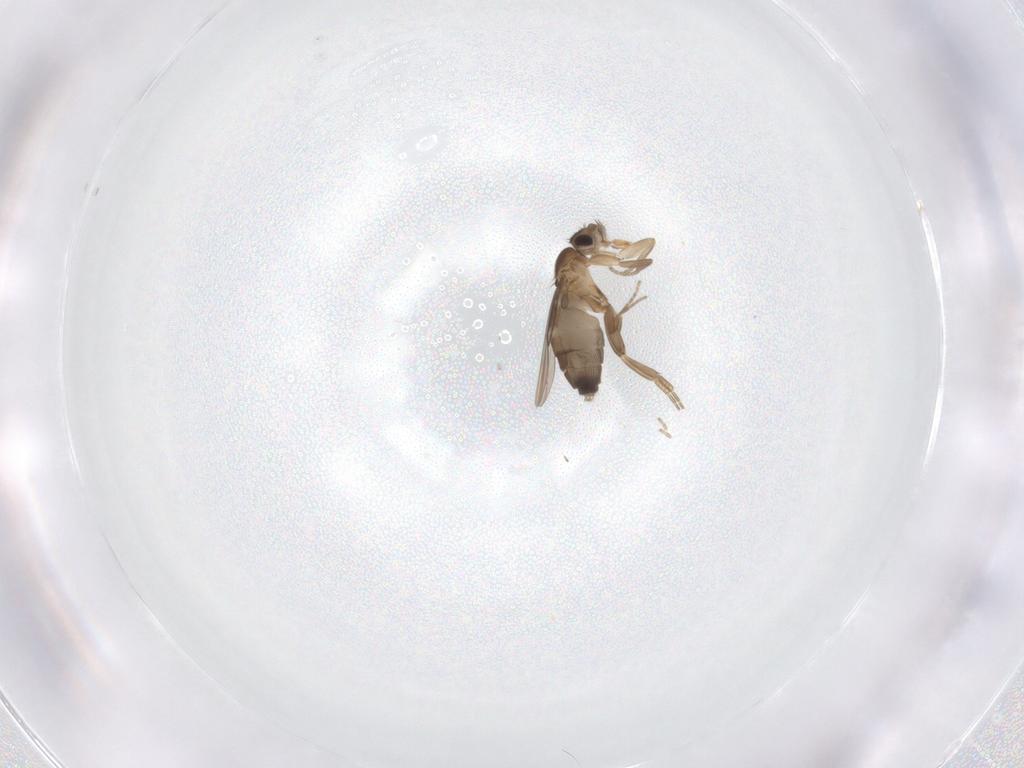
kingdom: Animalia
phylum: Arthropoda
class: Insecta
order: Diptera
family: Phoridae
